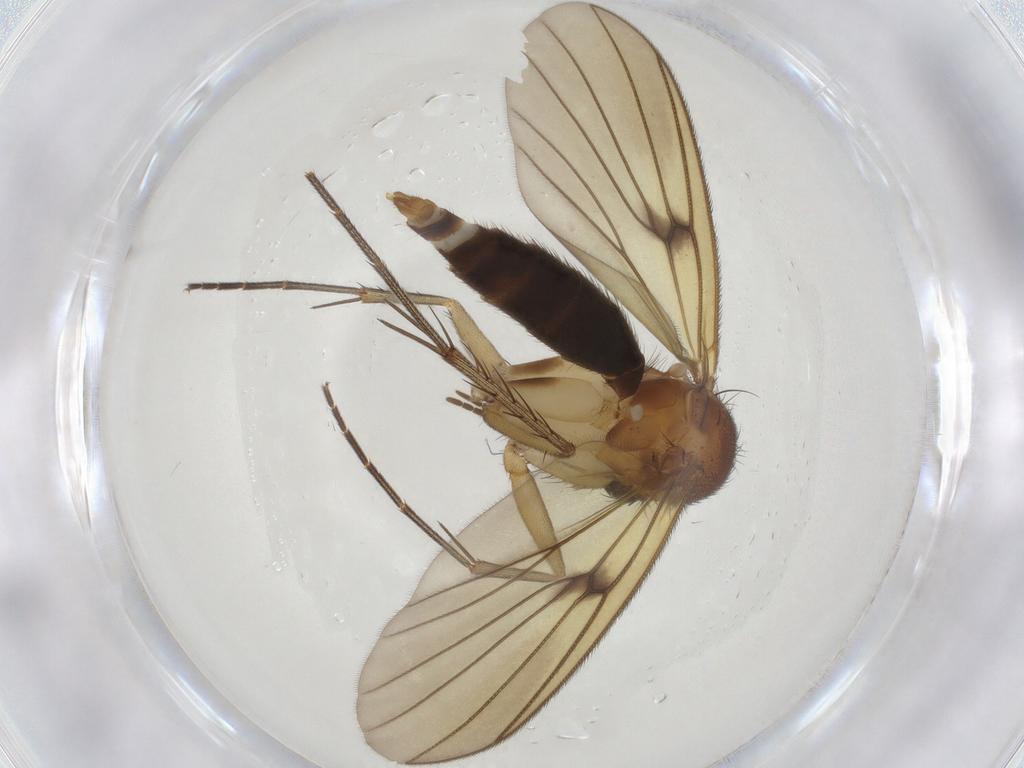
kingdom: Animalia
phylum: Arthropoda
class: Insecta
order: Diptera
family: Mycetophilidae
